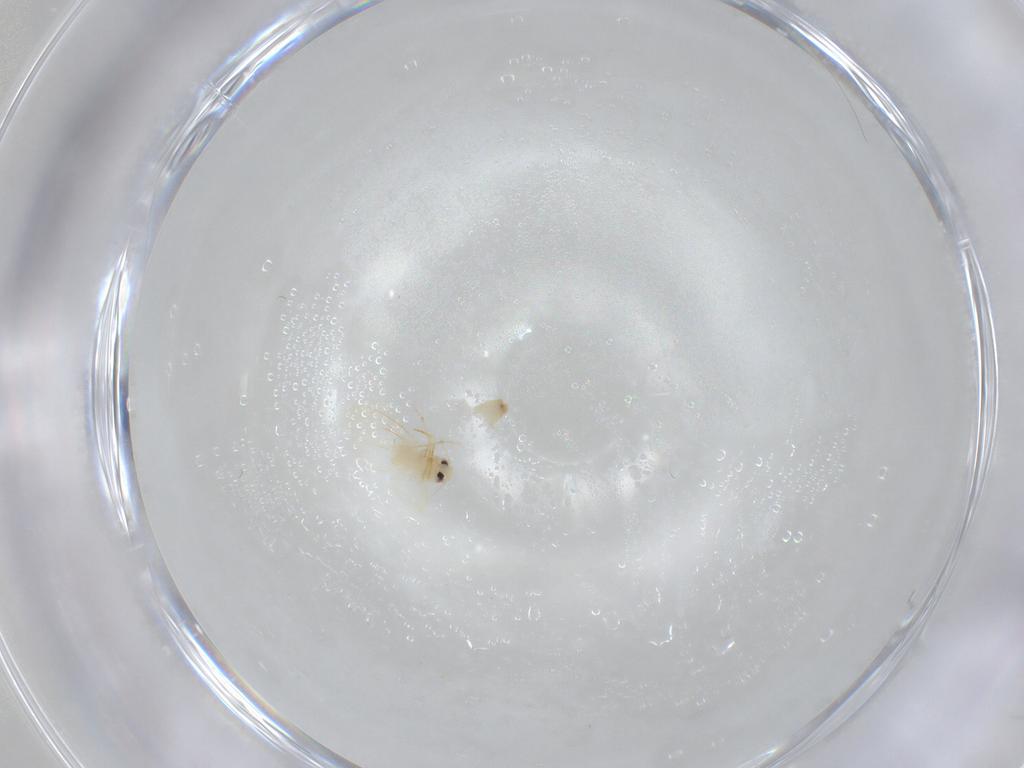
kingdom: Animalia
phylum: Arthropoda
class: Insecta
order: Hemiptera
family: Aleyrodidae
